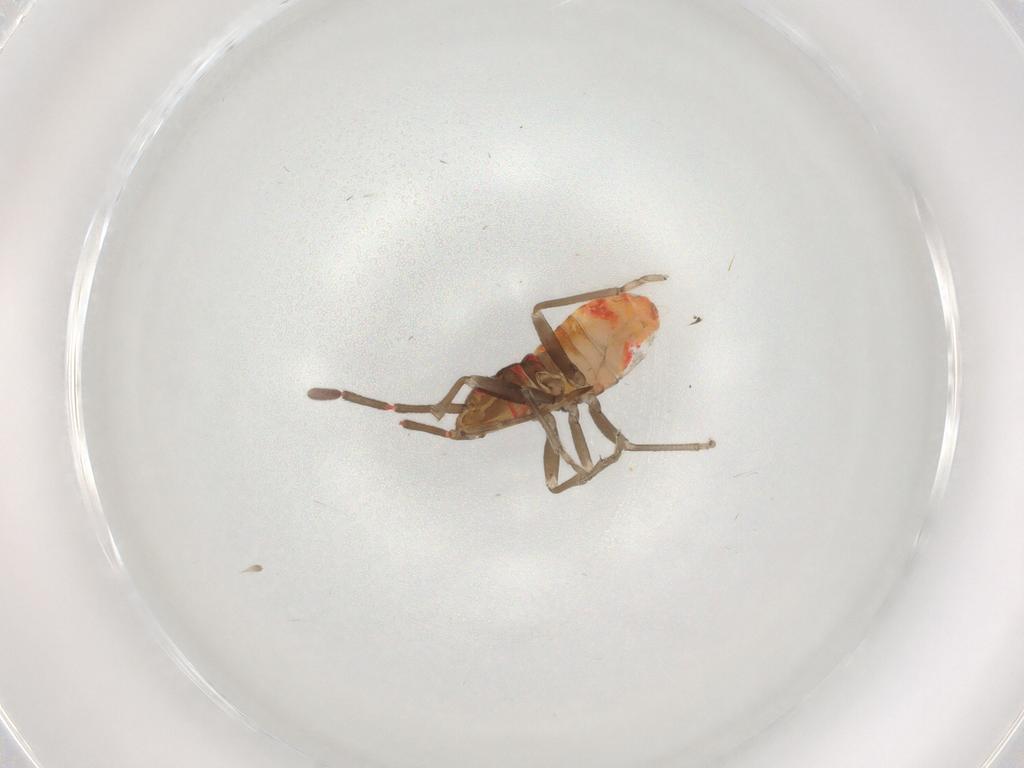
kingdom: Animalia
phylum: Arthropoda
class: Insecta
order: Hemiptera
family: Rhyparochromidae
